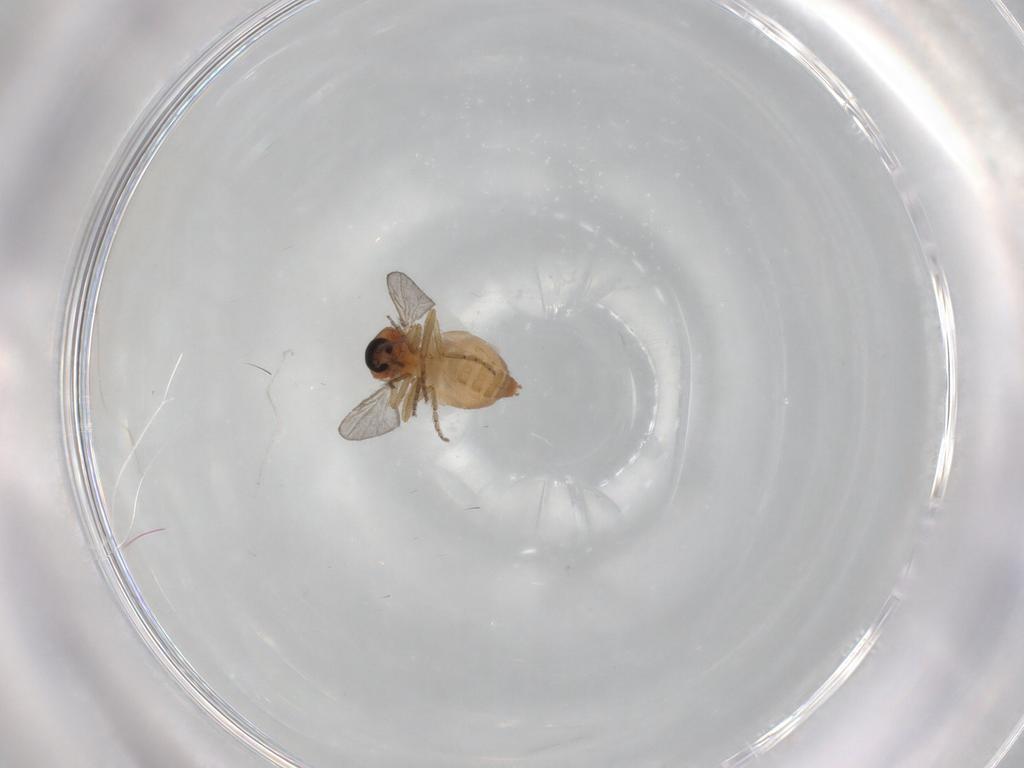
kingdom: Animalia
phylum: Arthropoda
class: Insecta
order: Diptera
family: Ceratopogonidae
